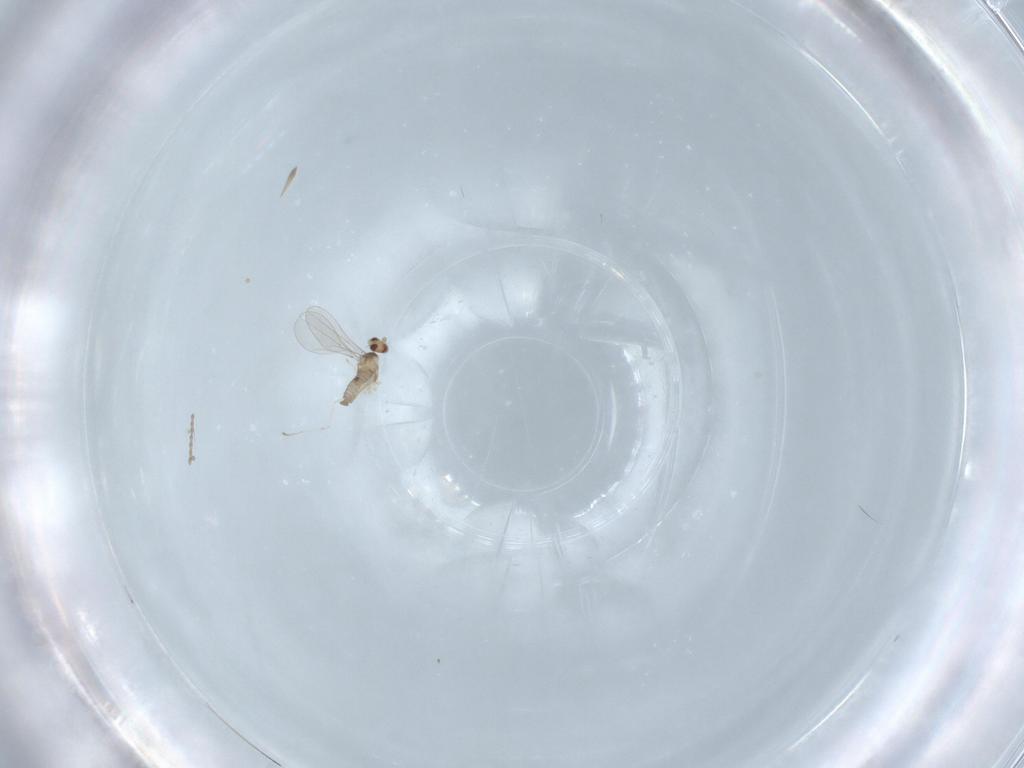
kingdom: Animalia
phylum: Arthropoda
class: Insecta
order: Diptera
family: Cecidomyiidae
